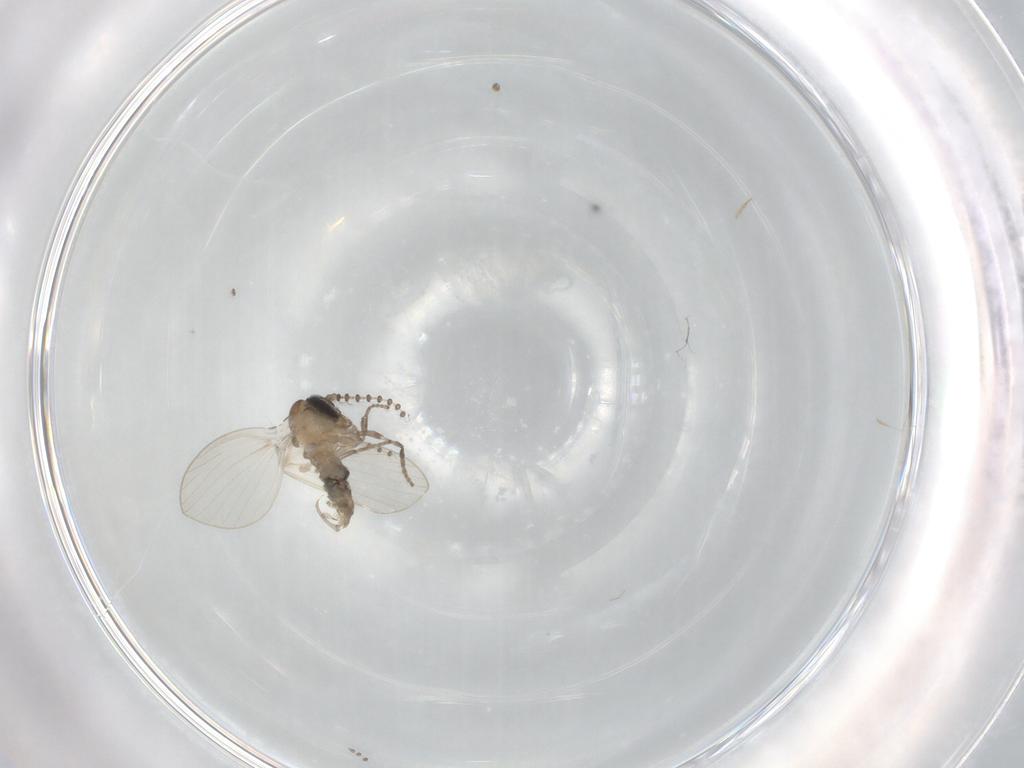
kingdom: Animalia
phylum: Arthropoda
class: Insecta
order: Diptera
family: Psychodidae
